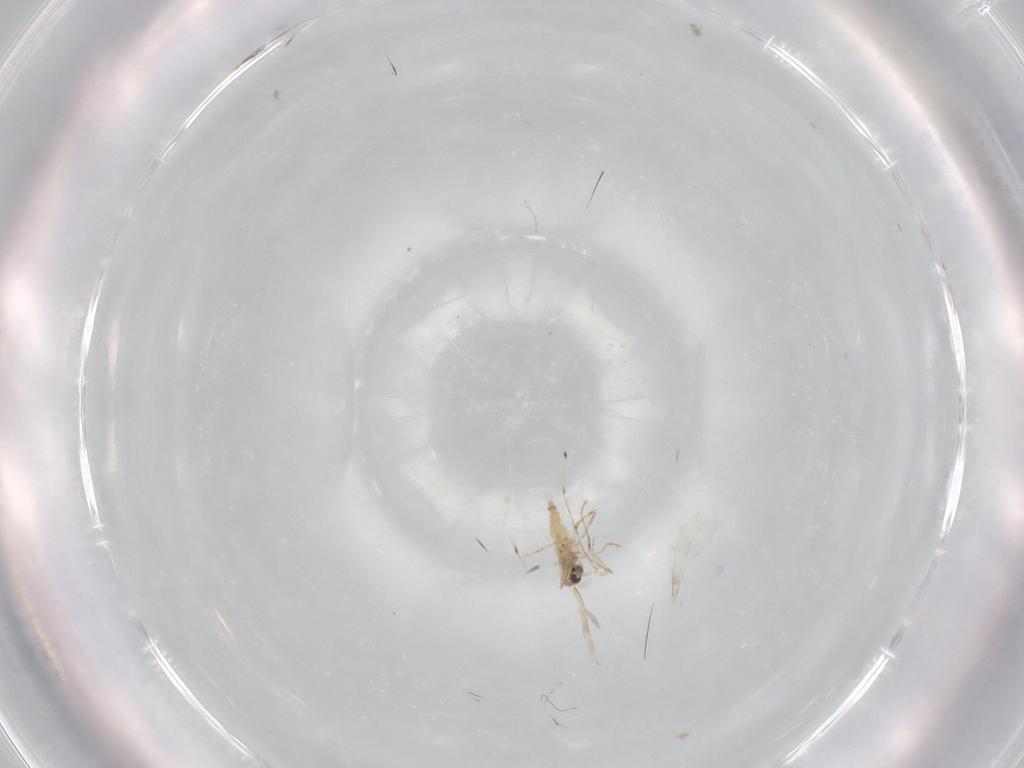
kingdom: Animalia
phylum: Arthropoda
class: Insecta
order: Diptera
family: Cecidomyiidae
